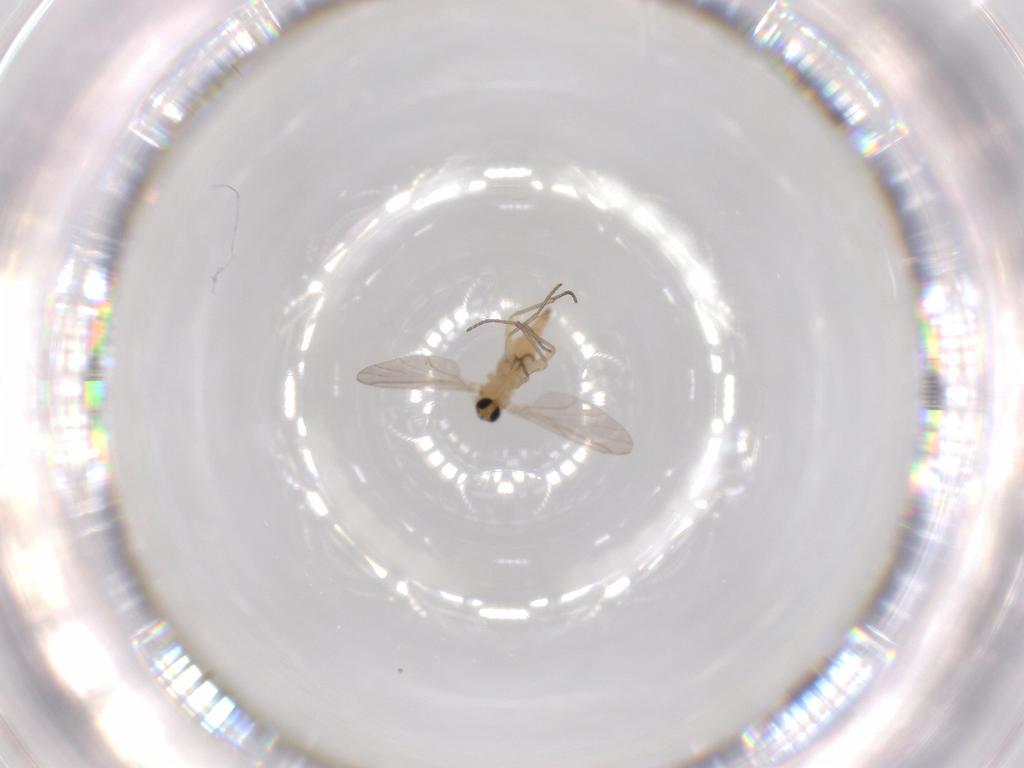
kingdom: Animalia
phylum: Arthropoda
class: Insecta
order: Diptera
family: Sciaridae
